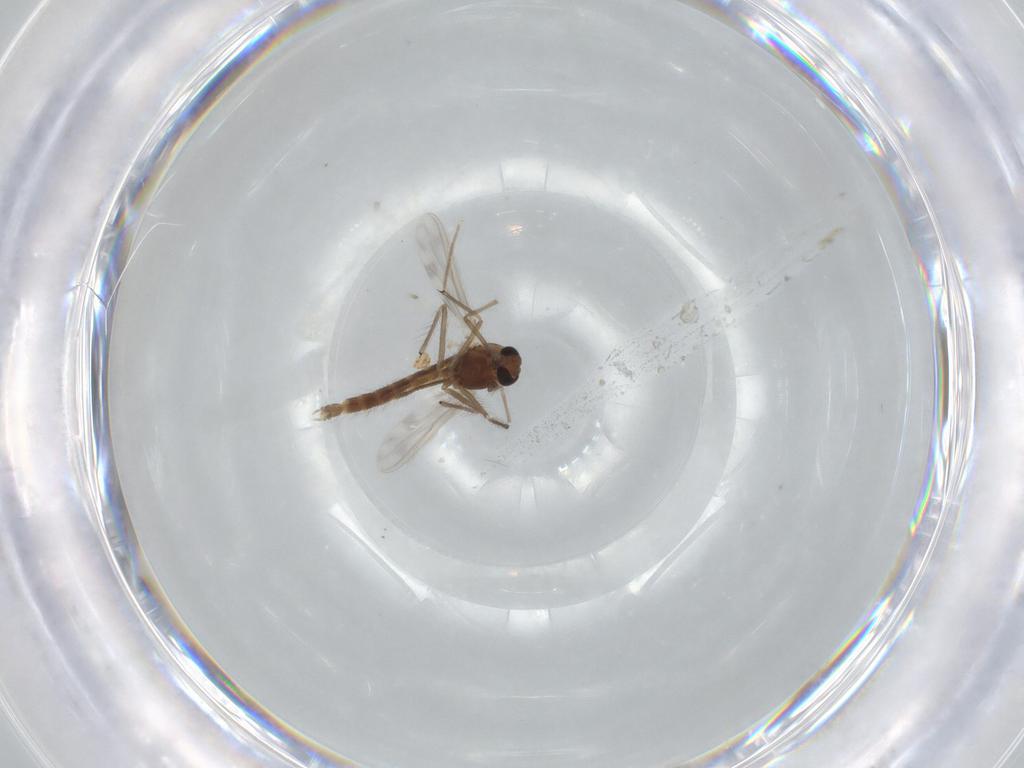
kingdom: Animalia
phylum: Arthropoda
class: Insecta
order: Diptera
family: Chironomidae
